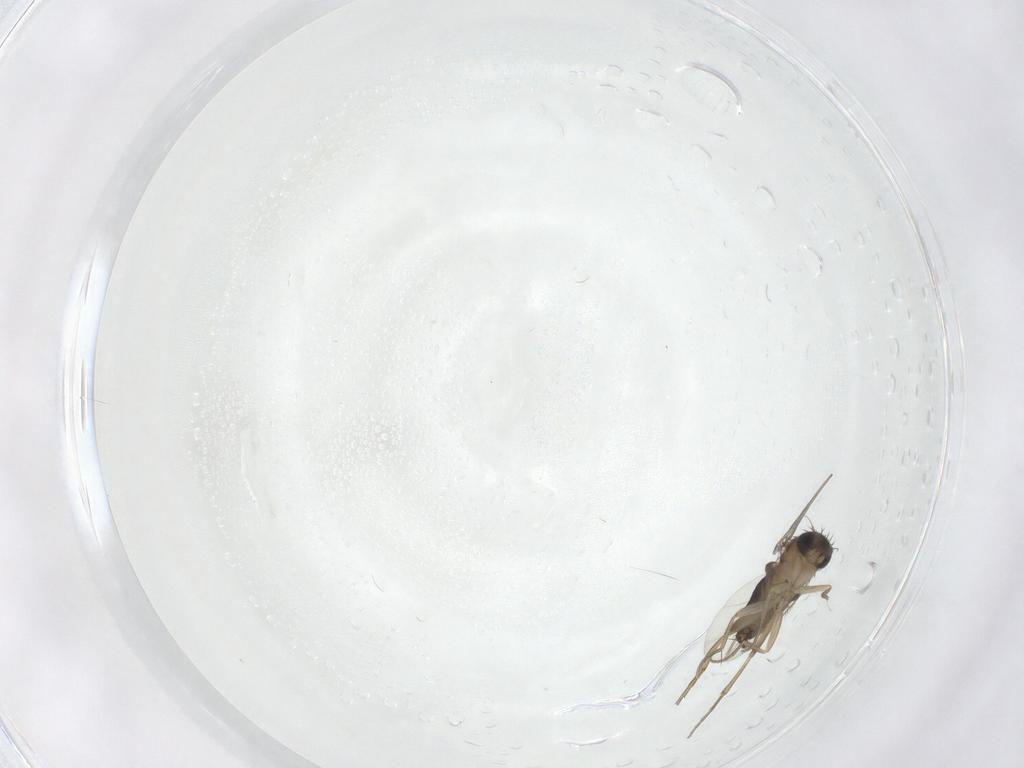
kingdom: Animalia
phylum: Arthropoda
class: Insecta
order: Diptera
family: Phoridae
